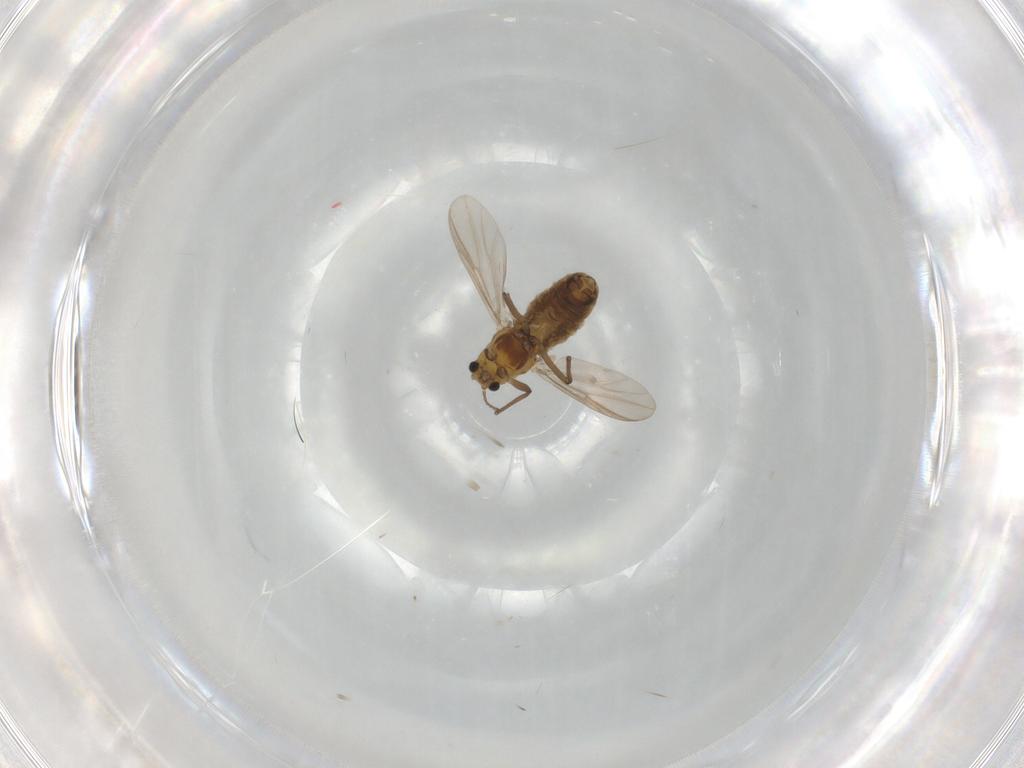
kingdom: Animalia
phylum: Arthropoda
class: Insecta
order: Diptera
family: Chironomidae
